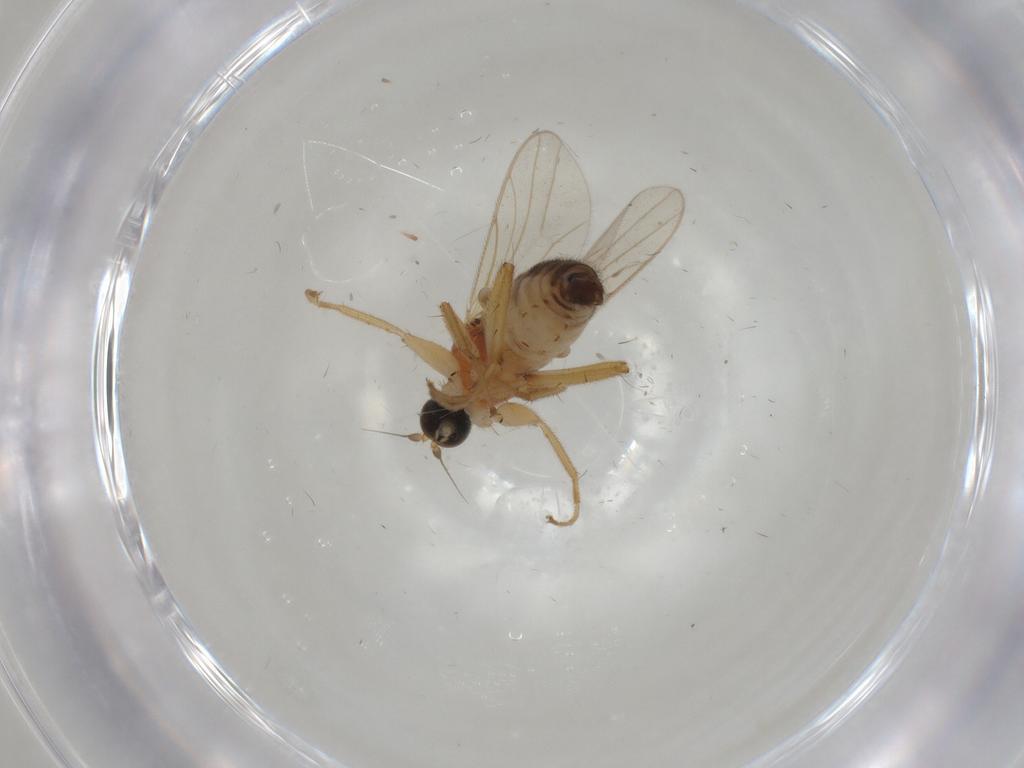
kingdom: Animalia
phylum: Arthropoda
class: Insecta
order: Diptera
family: Hybotidae
